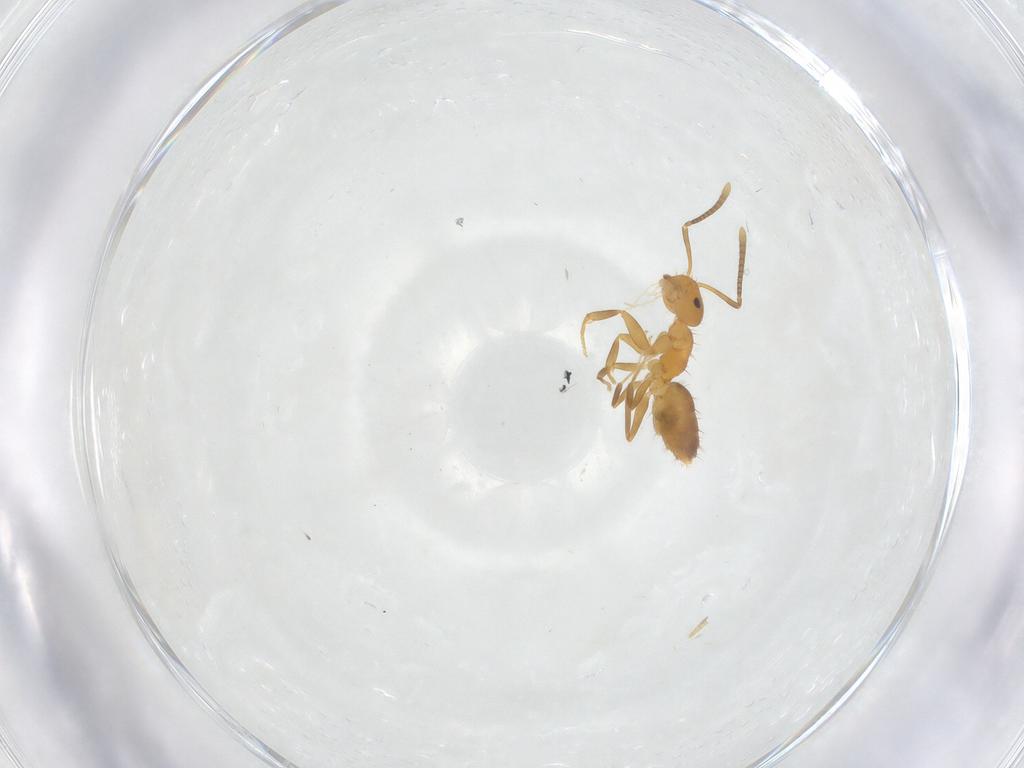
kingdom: Animalia
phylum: Arthropoda
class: Insecta
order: Hymenoptera
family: Formicidae
